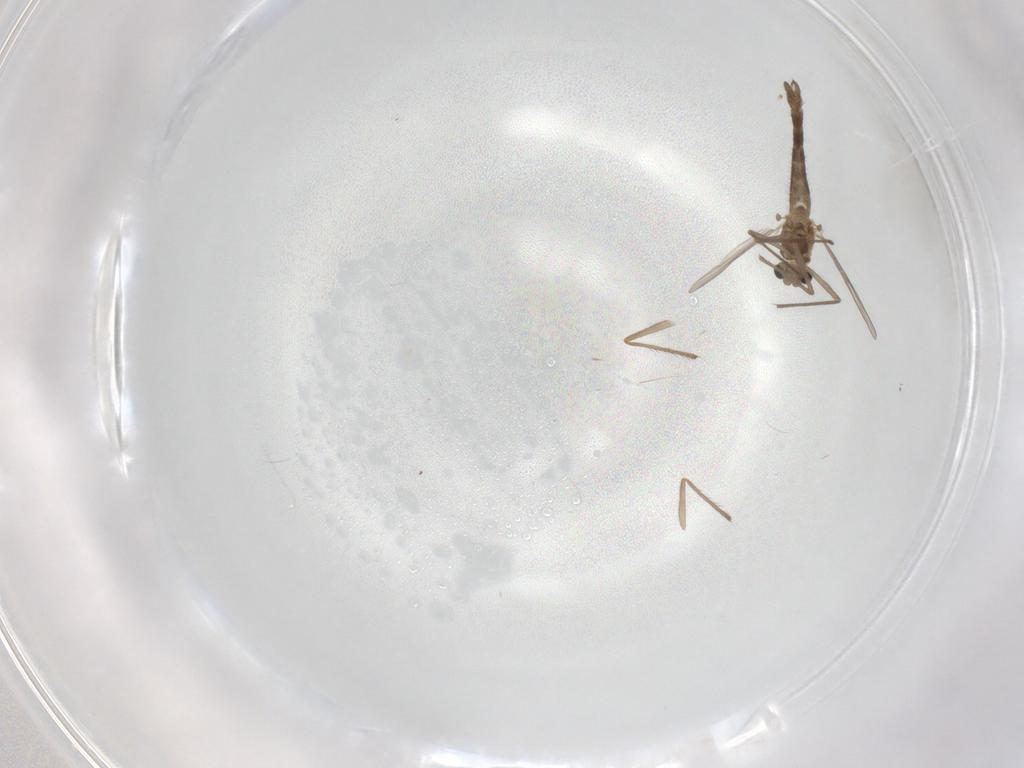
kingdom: Animalia
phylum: Arthropoda
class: Insecta
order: Diptera
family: Chironomidae
